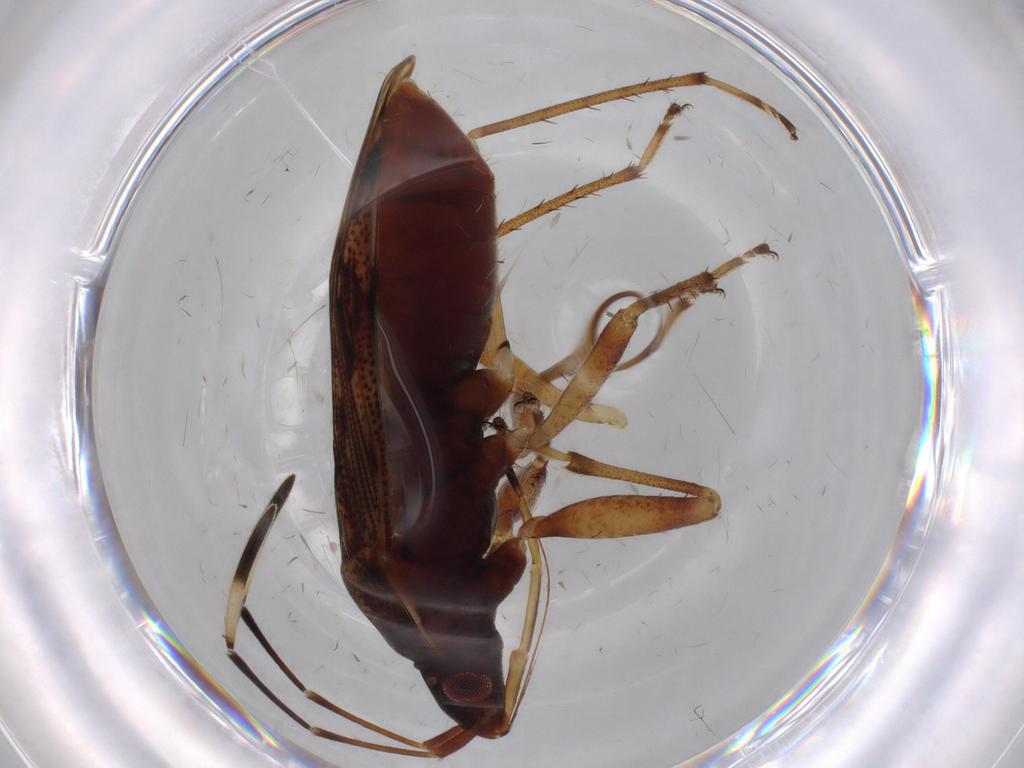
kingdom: Animalia
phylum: Arthropoda
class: Insecta
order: Hemiptera
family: Rhyparochromidae
